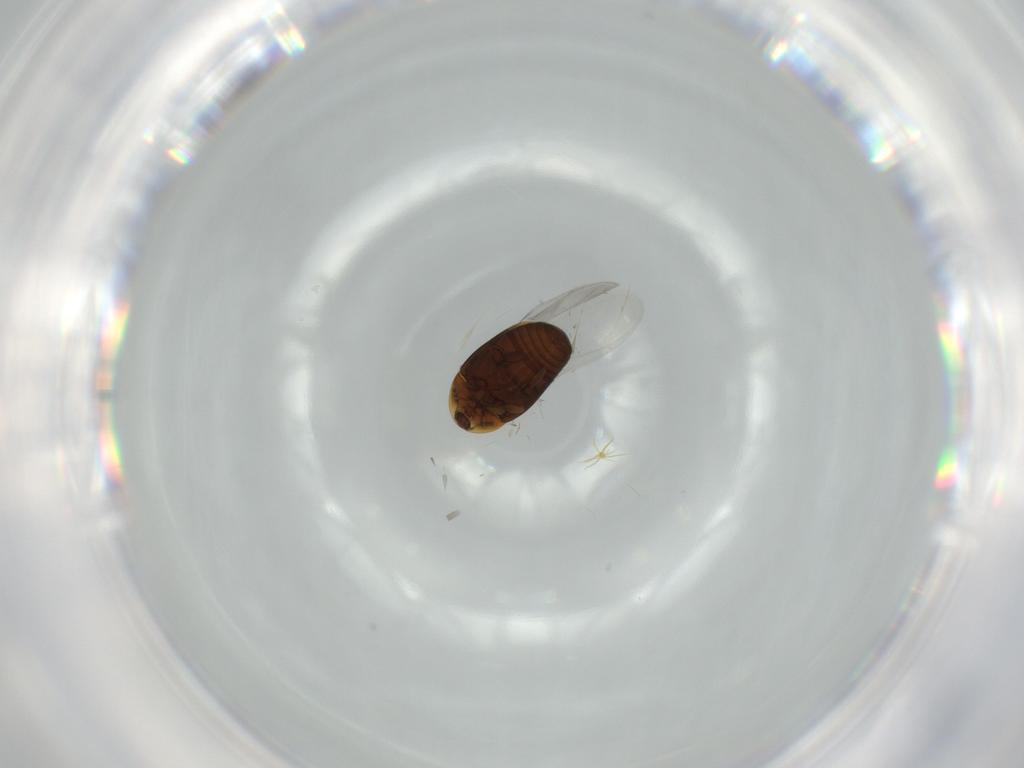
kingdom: Animalia
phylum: Arthropoda
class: Insecta
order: Coleoptera
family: Corylophidae
